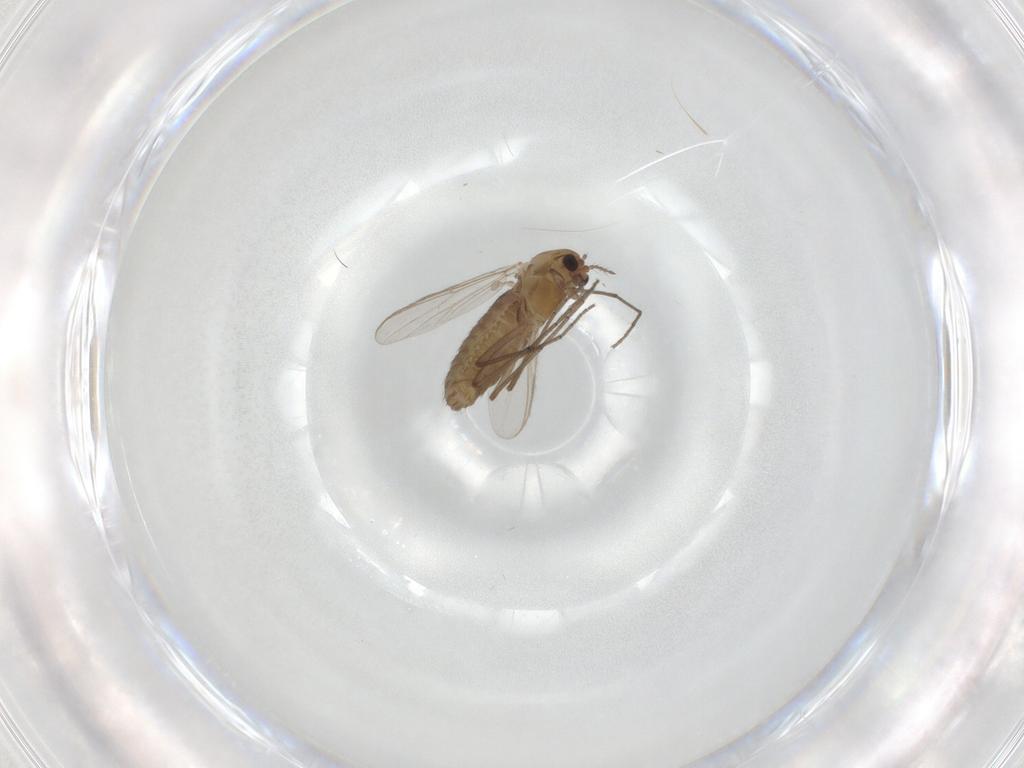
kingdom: Animalia
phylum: Arthropoda
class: Insecta
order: Diptera
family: Chironomidae
